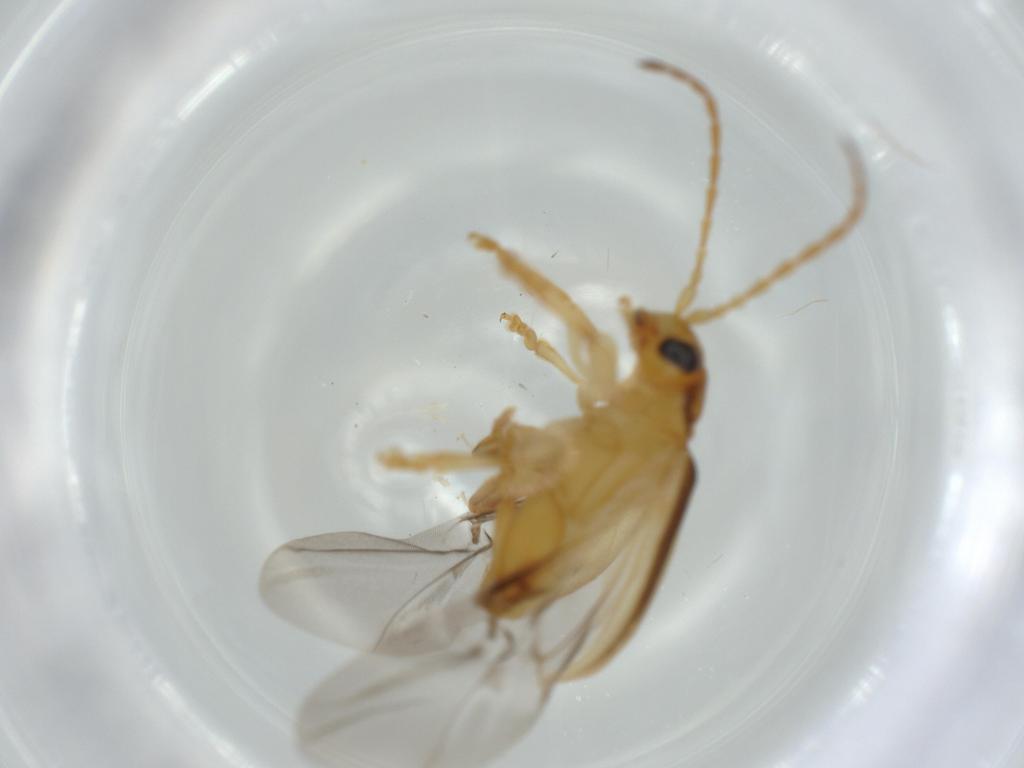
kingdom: Animalia
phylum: Arthropoda
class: Insecta
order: Coleoptera
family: Chrysomelidae
